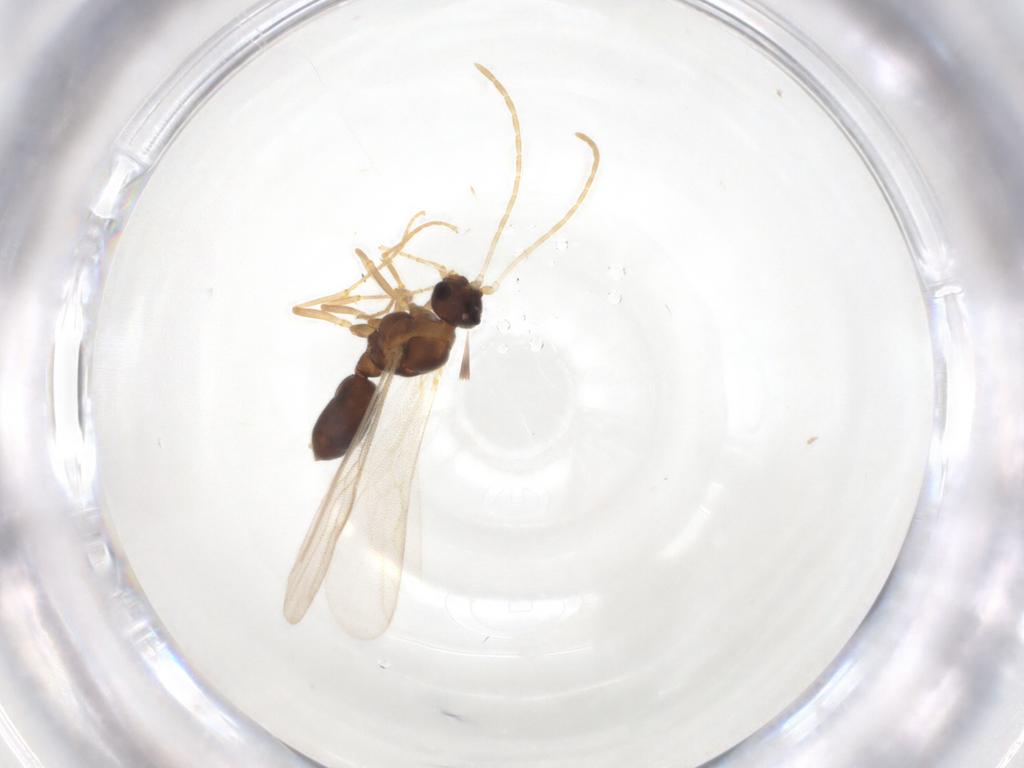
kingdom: Animalia
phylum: Arthropoda
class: Insecta
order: Hymenoptera
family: Formicidae
